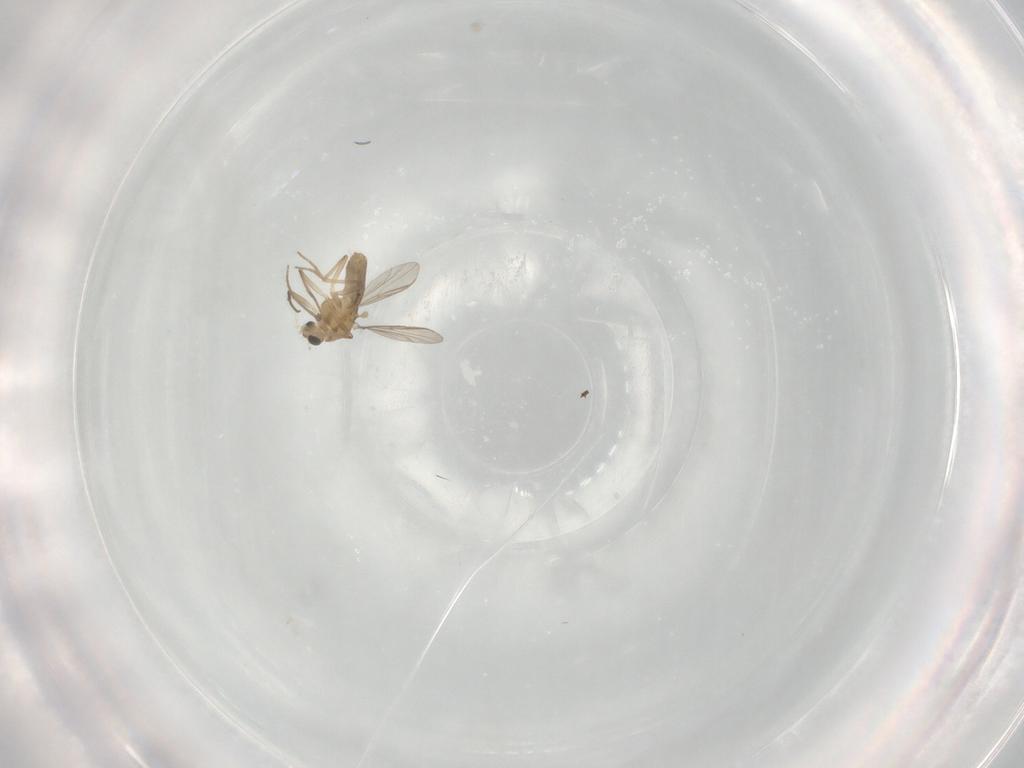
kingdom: Animalia
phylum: Arthropoda
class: Insecta
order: Diptera
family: Chironomidae
